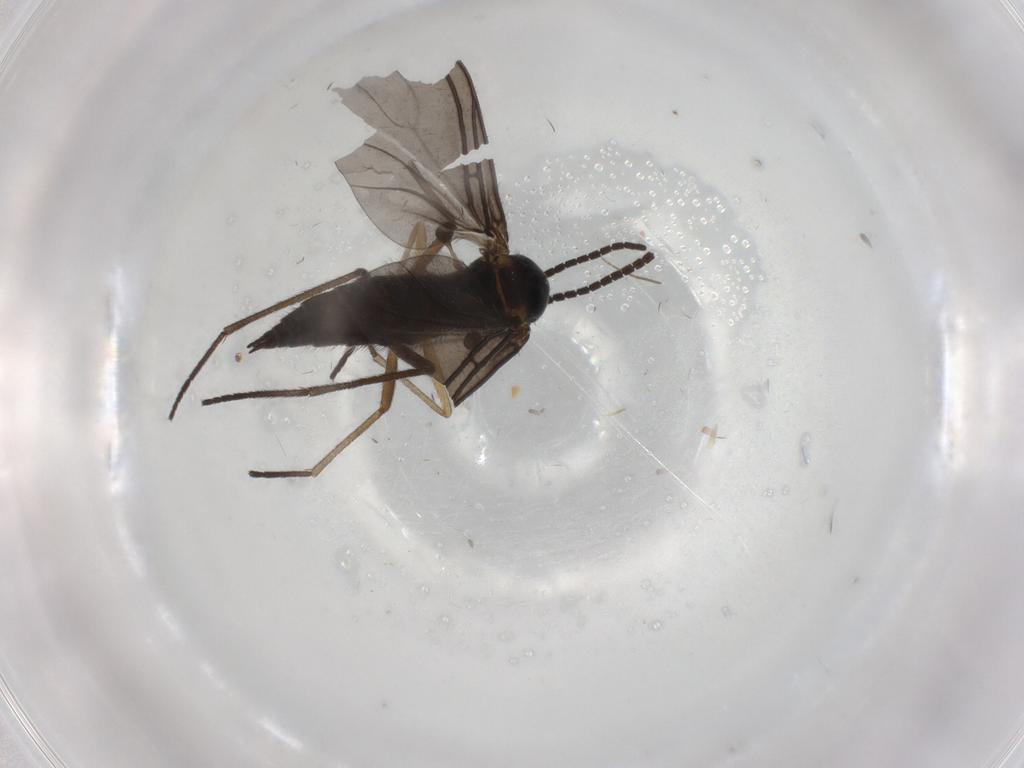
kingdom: Animalia
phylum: Arthropoda
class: Insecta
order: Diptera
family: Sciaridae
